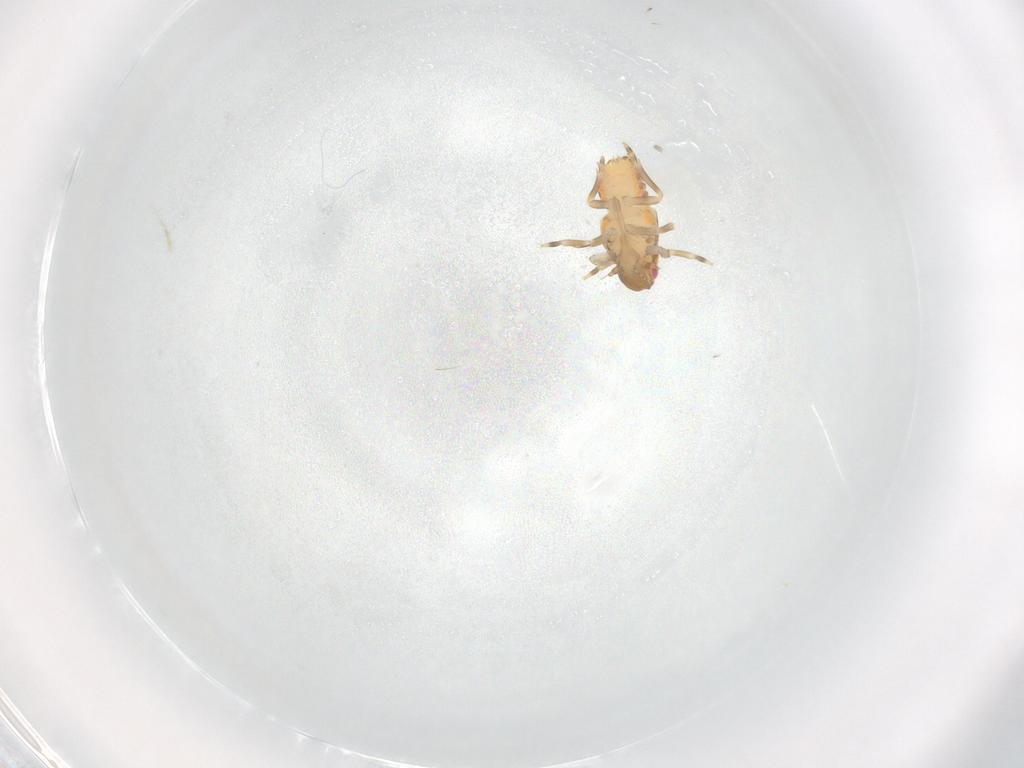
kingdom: Animalia
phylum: Arthropoda
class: Insecta
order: Hemiptera
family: Flatidae
